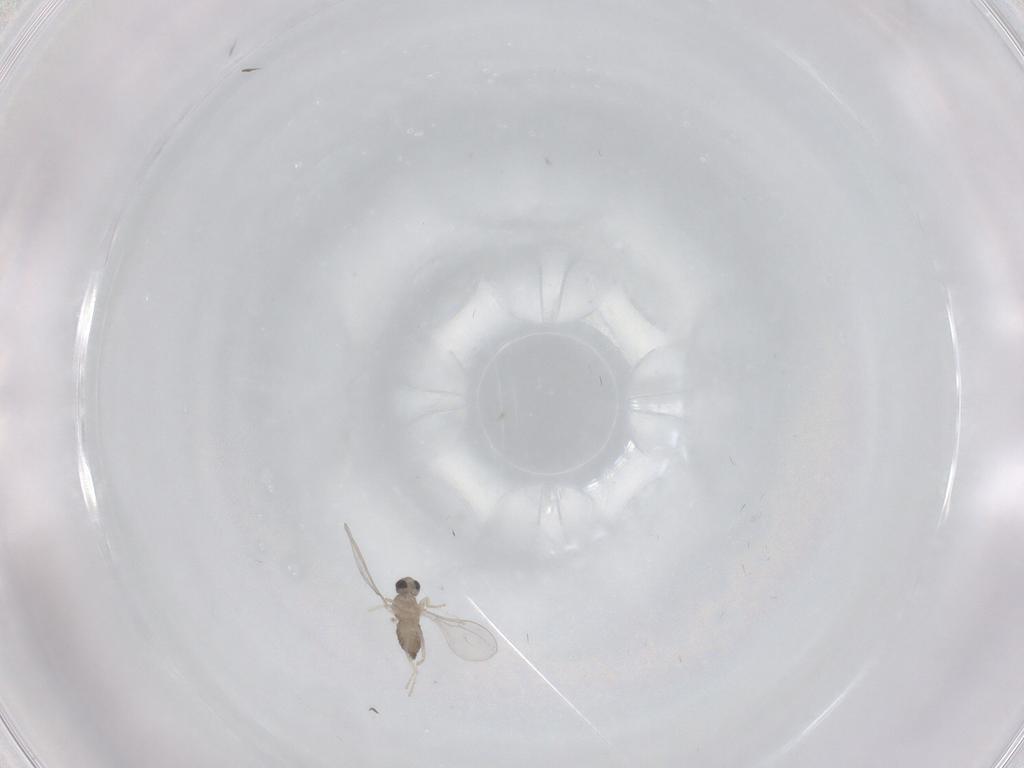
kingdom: Animalia
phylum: Arthropoda
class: Insecta
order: Diptera
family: Cecidomyiidae
